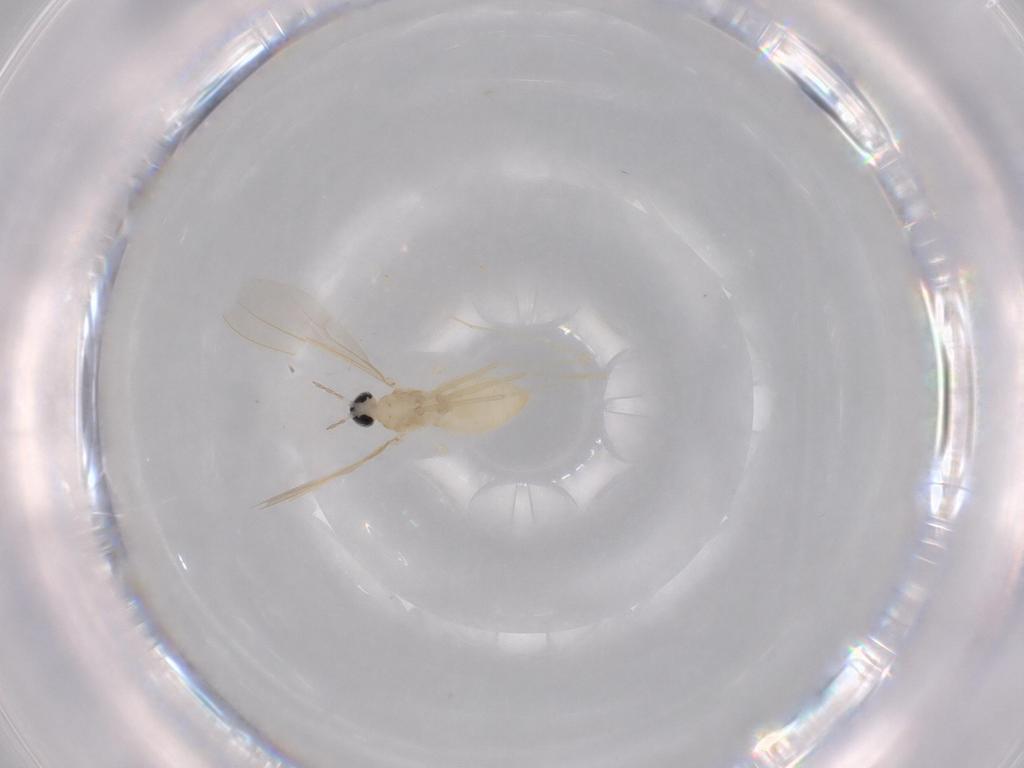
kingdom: Animalia
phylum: Arthropoda
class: Insecta
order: Diptera
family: Cecidomyiidae
